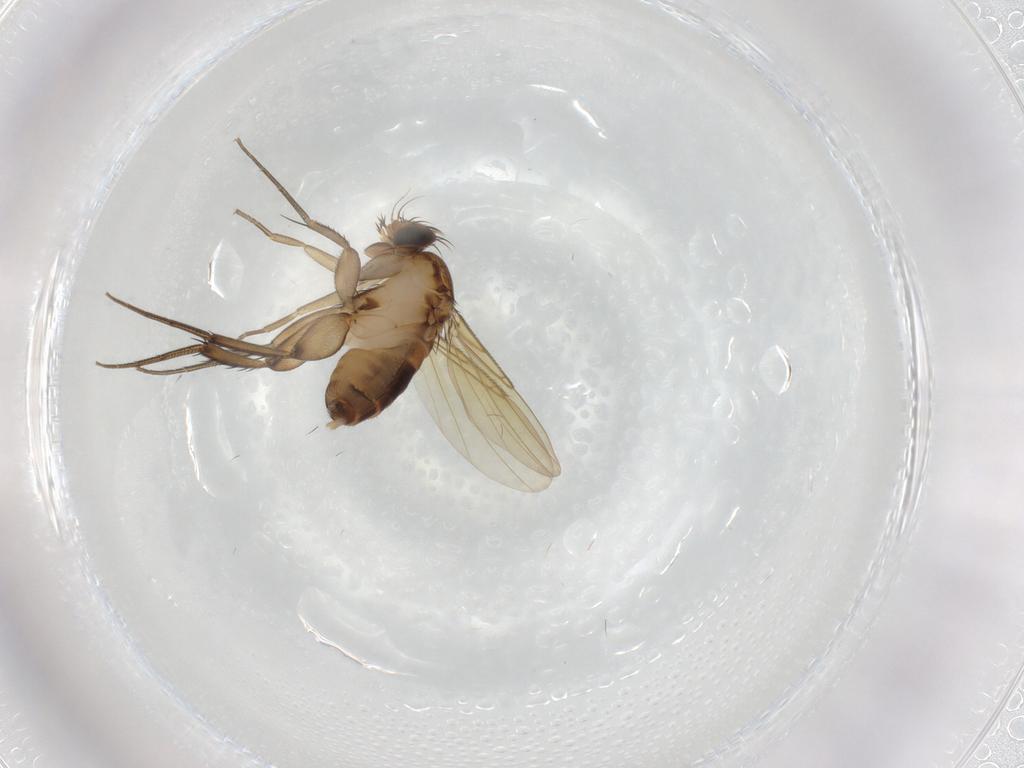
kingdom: Animalia
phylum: Arthropoda
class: Insecta
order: Diptera
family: Phoridae
